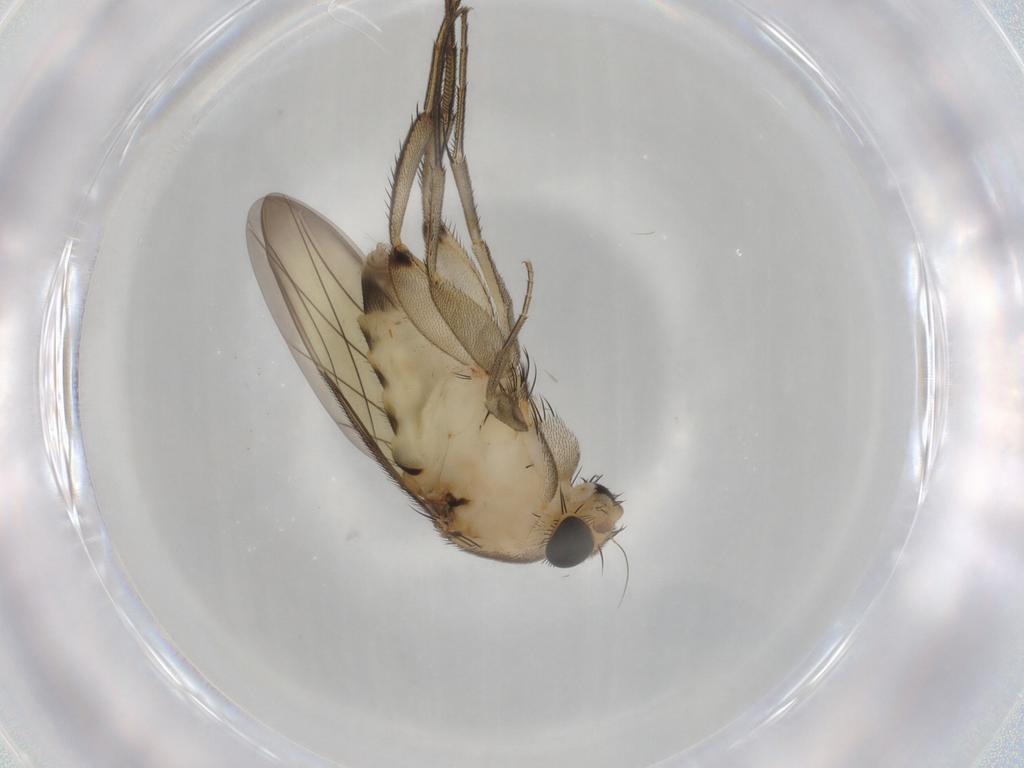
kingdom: Animalia
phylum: Arthropoda
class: Insecta
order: Diptera
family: Phoridae
